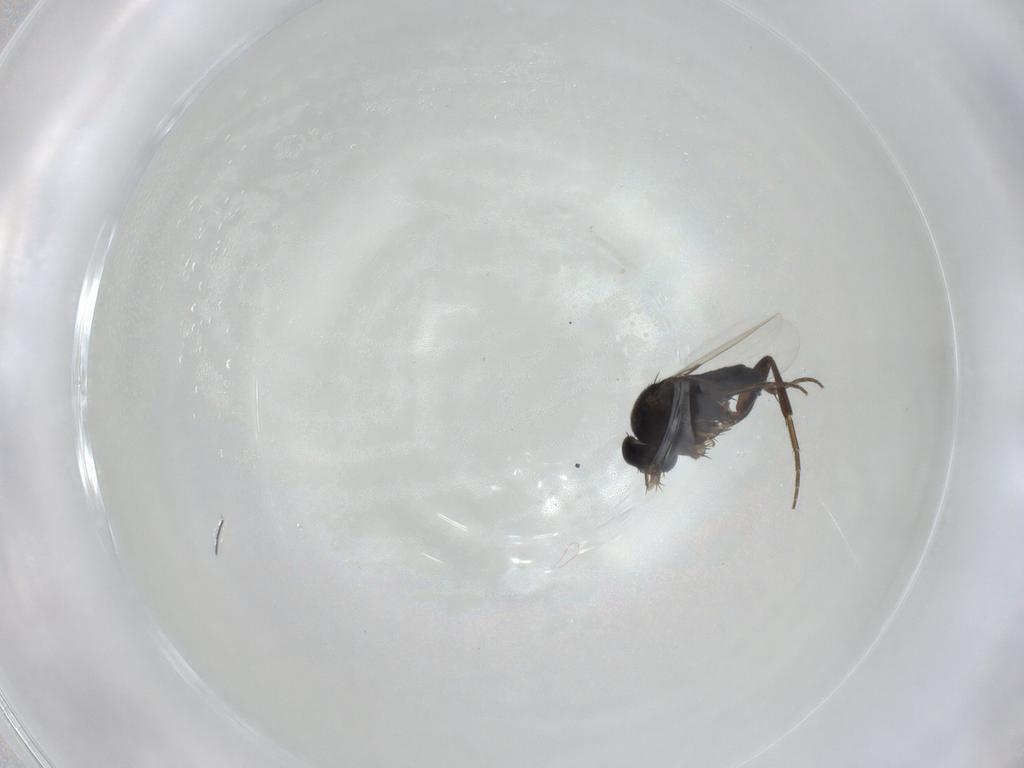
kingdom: Animalia
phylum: Arthropoda
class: Insecta
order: Diptera
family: Phoridae
